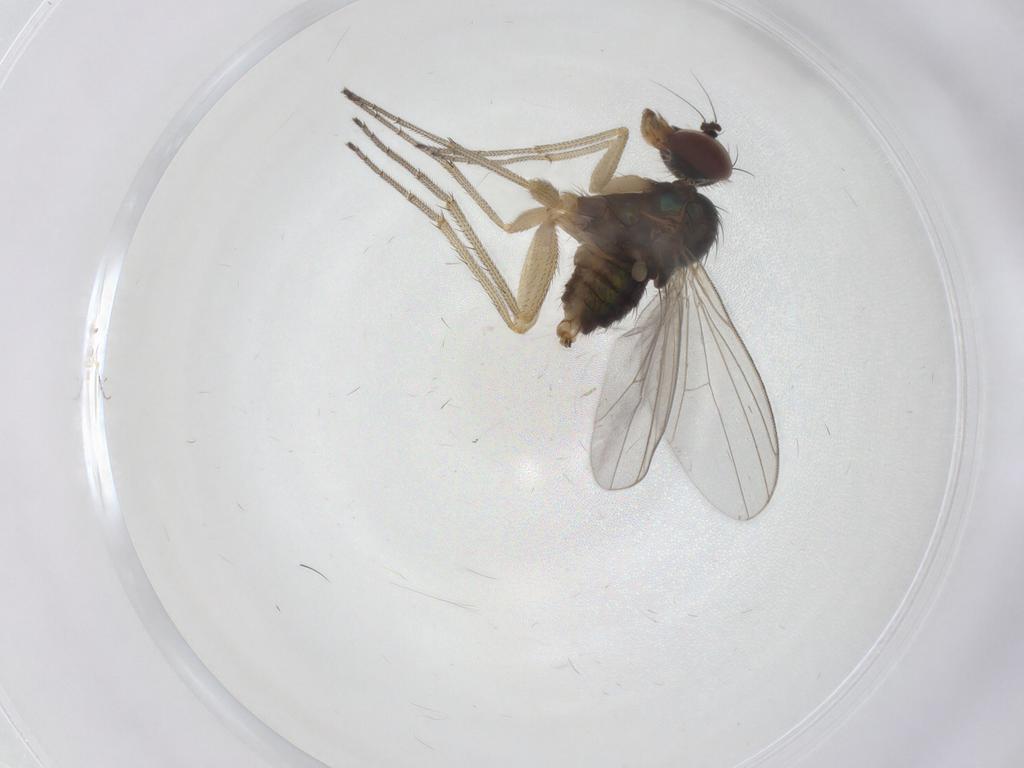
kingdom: Animalia
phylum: Arthropoda
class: Insecta
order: Diptera
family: Dolichopodidae
